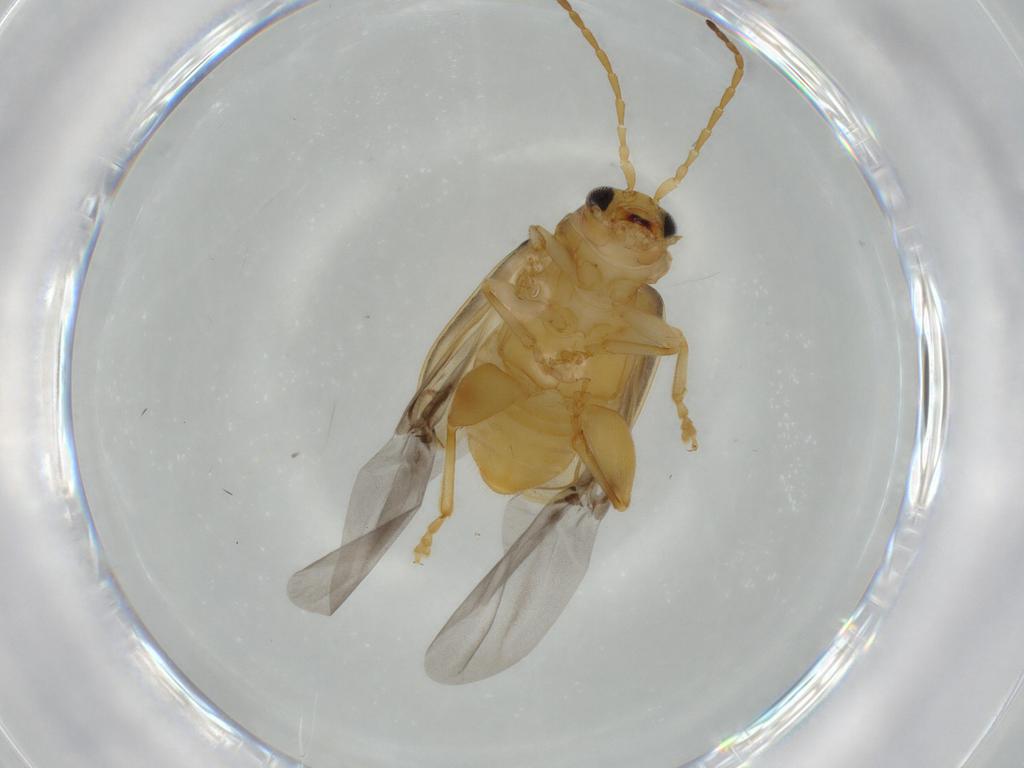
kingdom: Animalia
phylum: Arthropoda
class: Insecta
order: Coleoptera
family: Chrysomelidae
